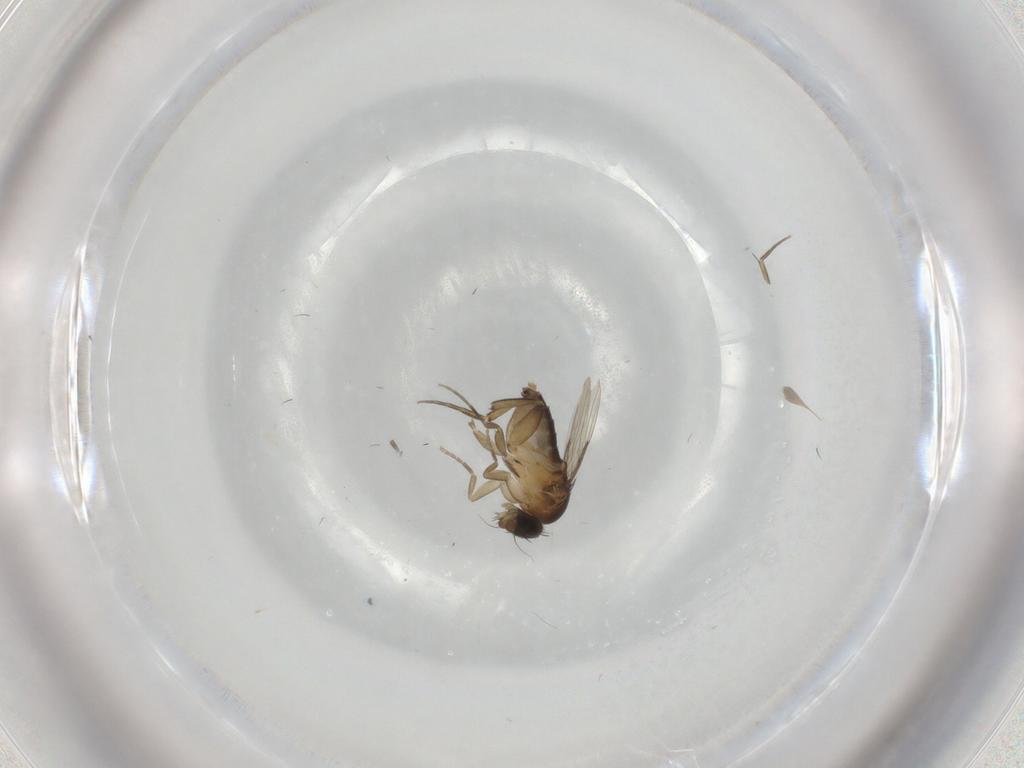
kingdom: Animalia
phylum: Arthropoda
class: Insecta
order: Diptera
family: Phoridae
